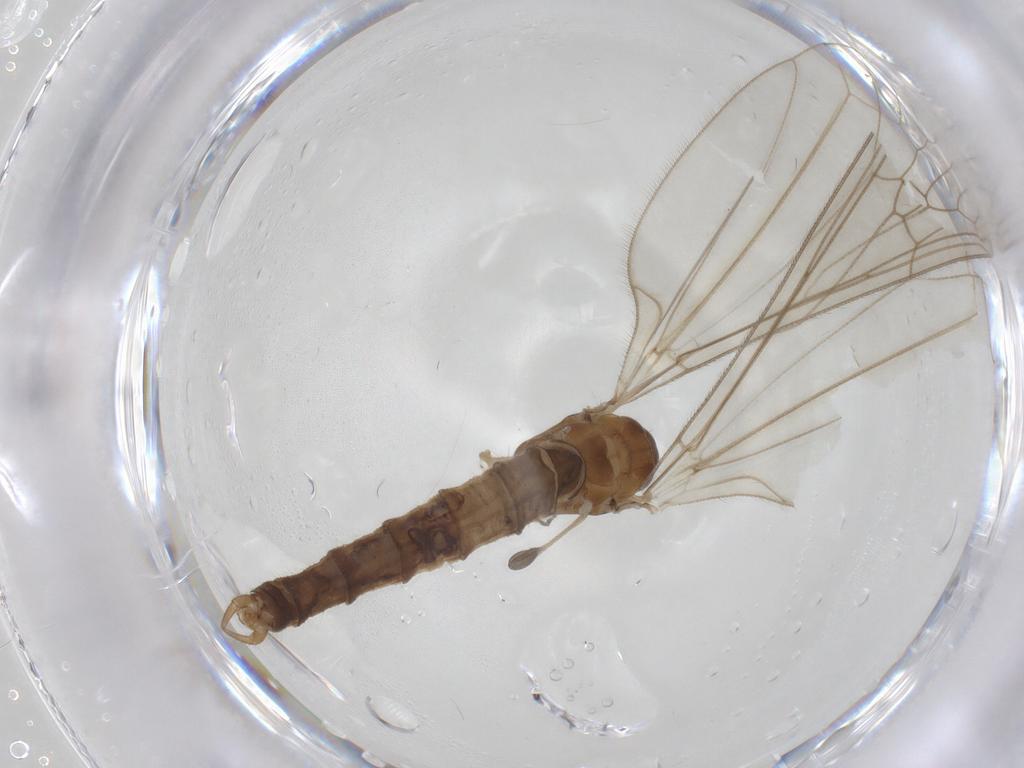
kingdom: Animalia
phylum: Arthropoda
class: Insecta
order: Diptera
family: Trichoceridae
